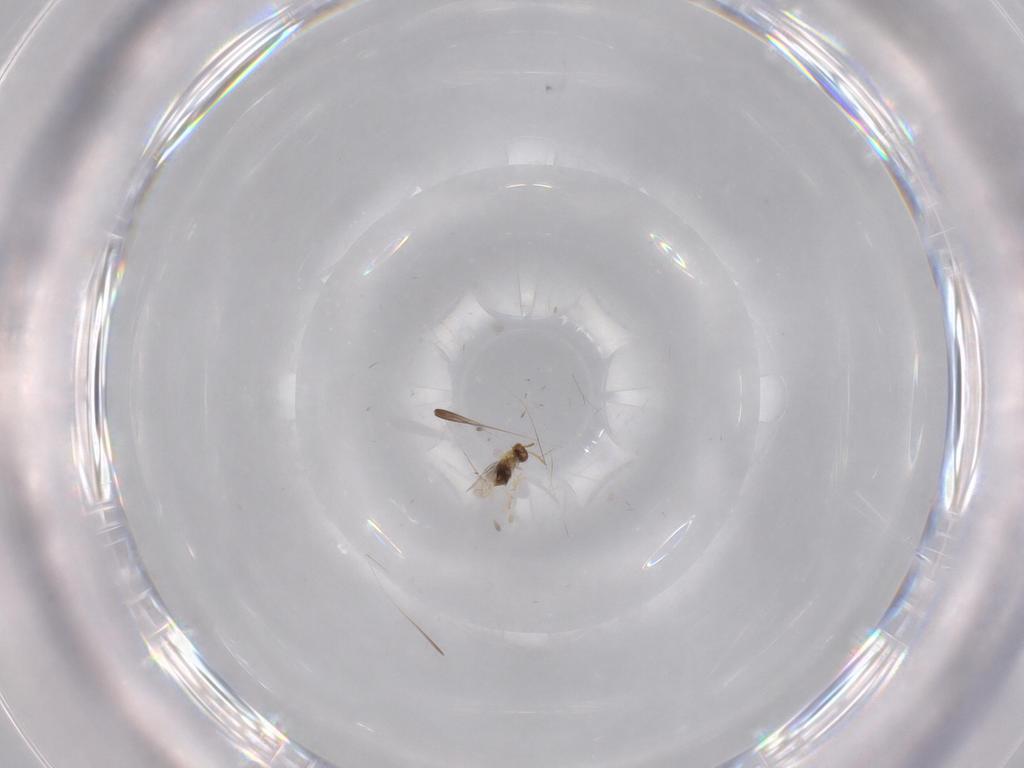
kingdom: Animalia
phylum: Arthropoda
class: Insecta
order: Hymenoptera
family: Aphelinidae
